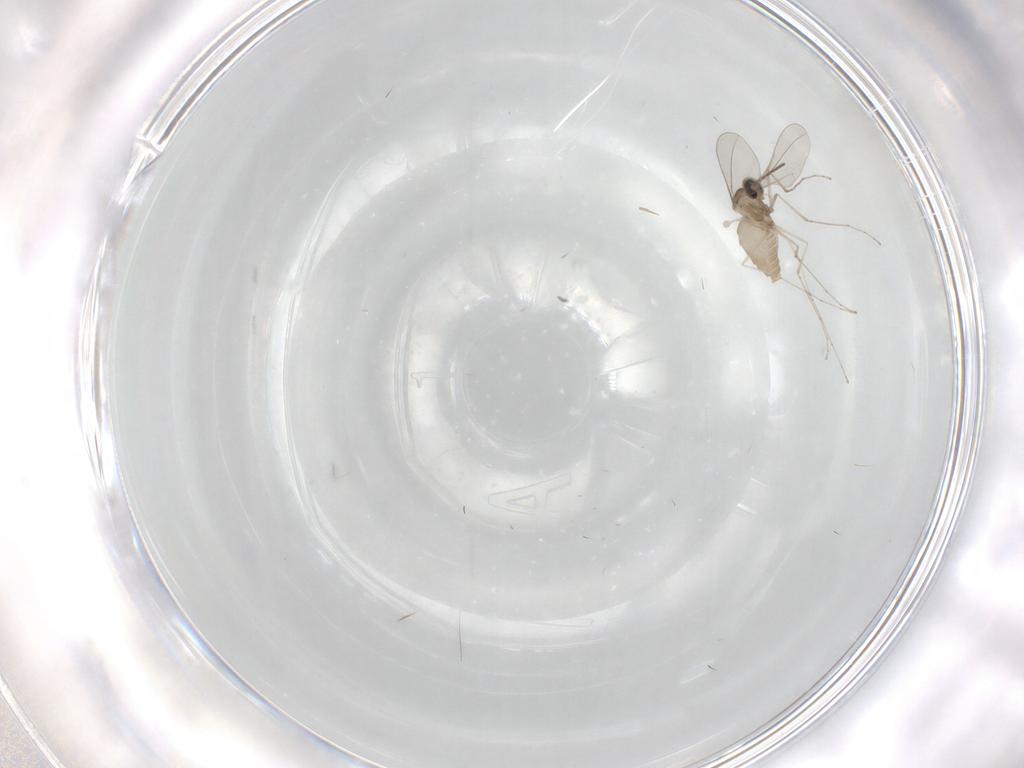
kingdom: Animalia
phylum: Arthropoda
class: Insecta
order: Diptera
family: Cecidomyiidae
